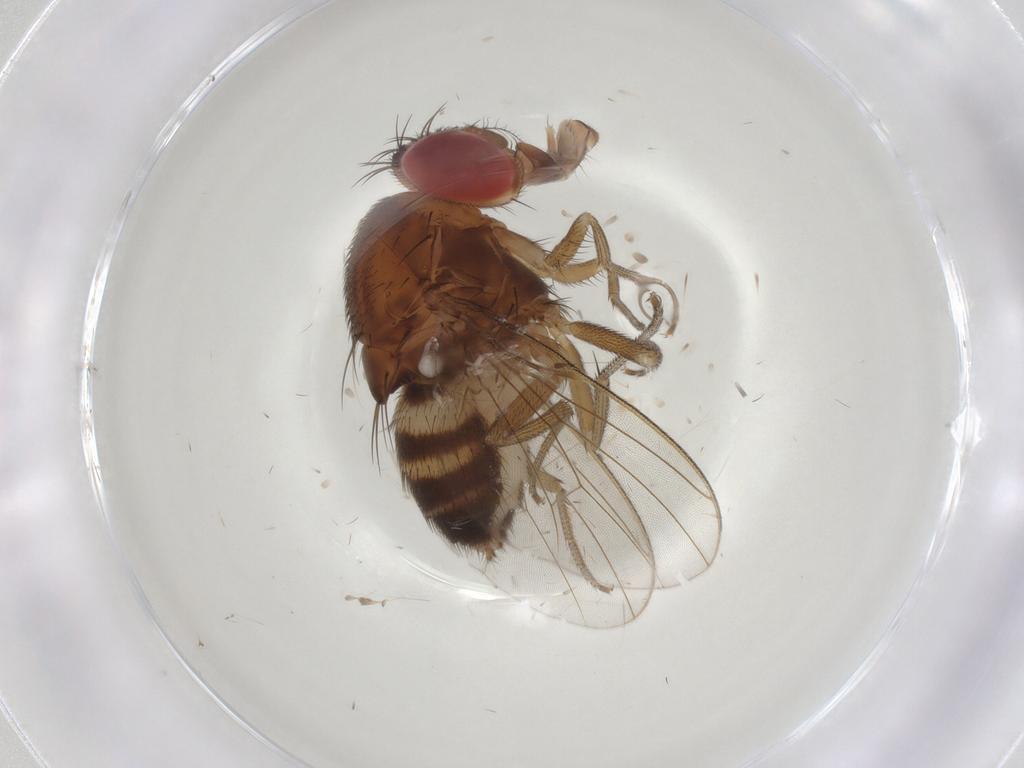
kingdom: Animalia
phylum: Arthropoda
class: Insecta
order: Diptera
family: Drosophilidae
